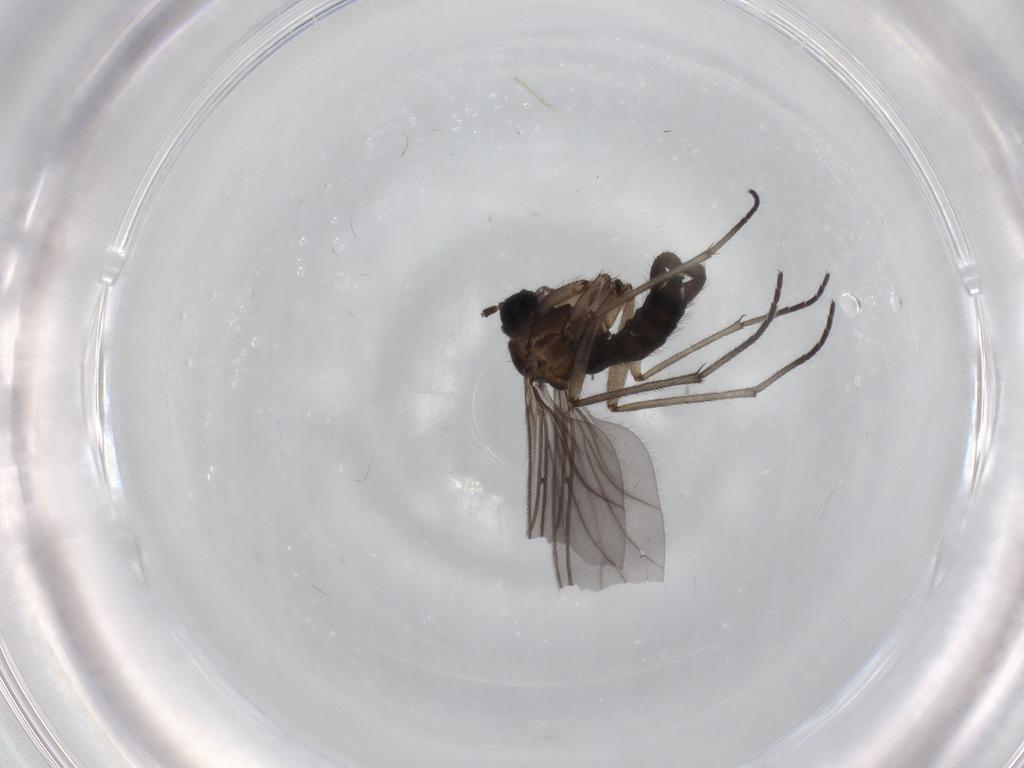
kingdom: Animalia
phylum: Arthropoda
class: Insecta
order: Diptera
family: Sciaridae
